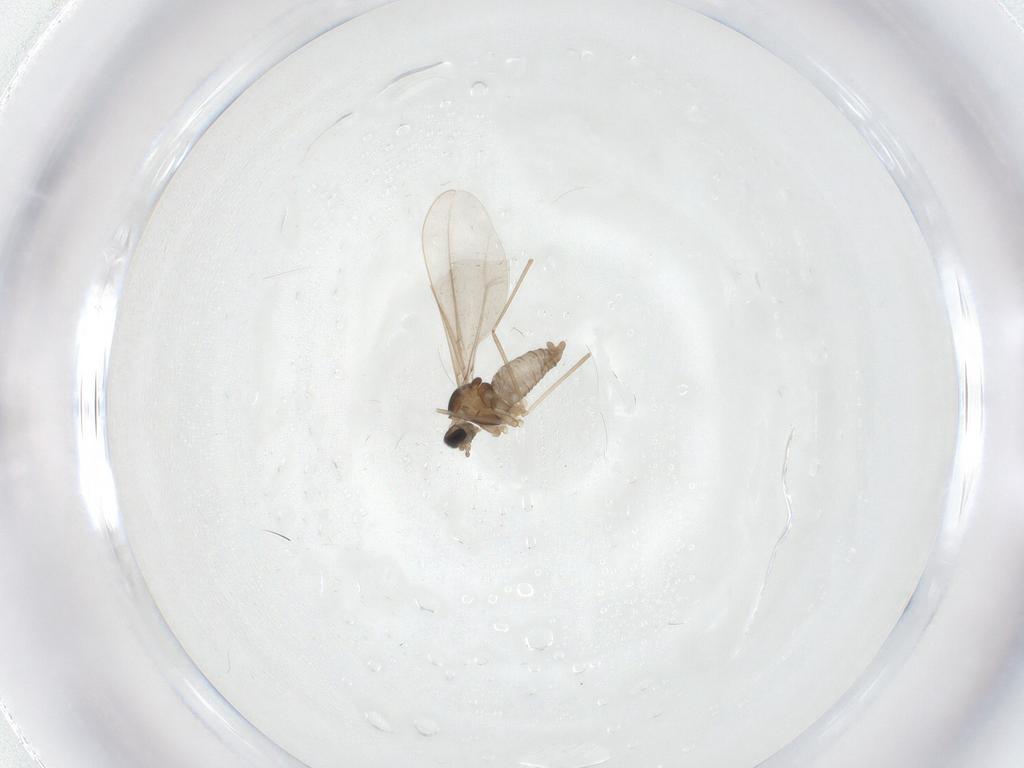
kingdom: Animalia
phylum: Arthropoda
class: Insecta
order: Diptera
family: Cecidomyiidae
